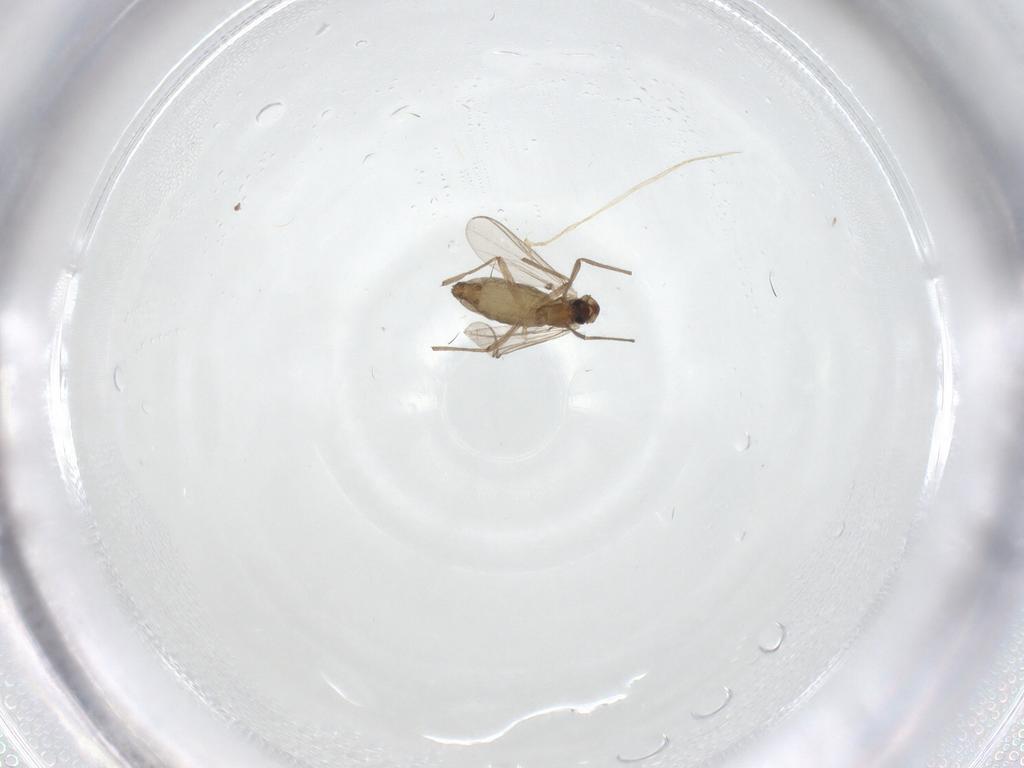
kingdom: Animalia
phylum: Arthropoda
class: Insecta
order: Diptera
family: Chironomidae
